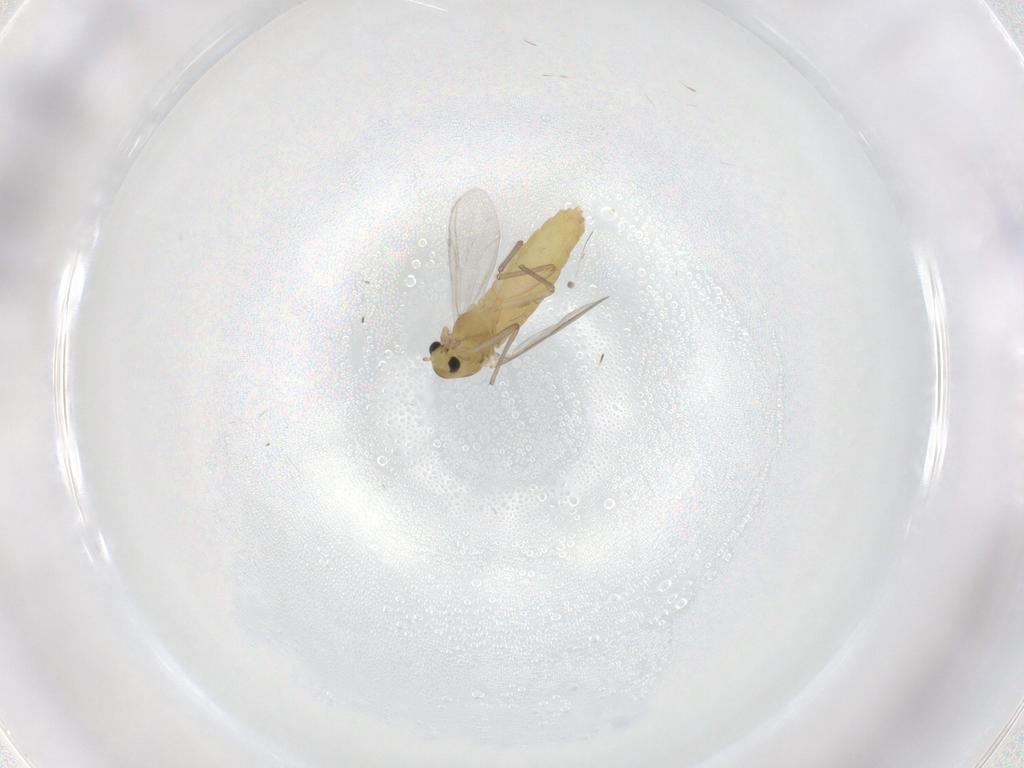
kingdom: Animalia
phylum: Arthropoda
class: Insecta
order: Diptera
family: Chironomidae
